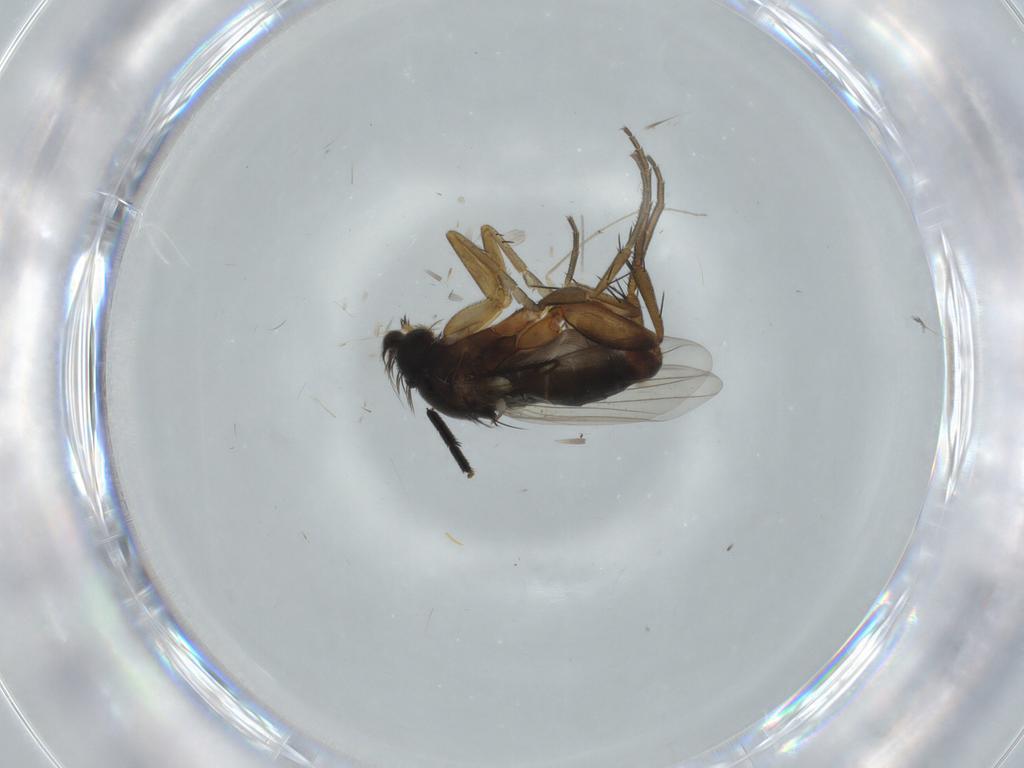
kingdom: Animalia
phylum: Arthropoda
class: Insecta
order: Diptera
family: Phoridae
